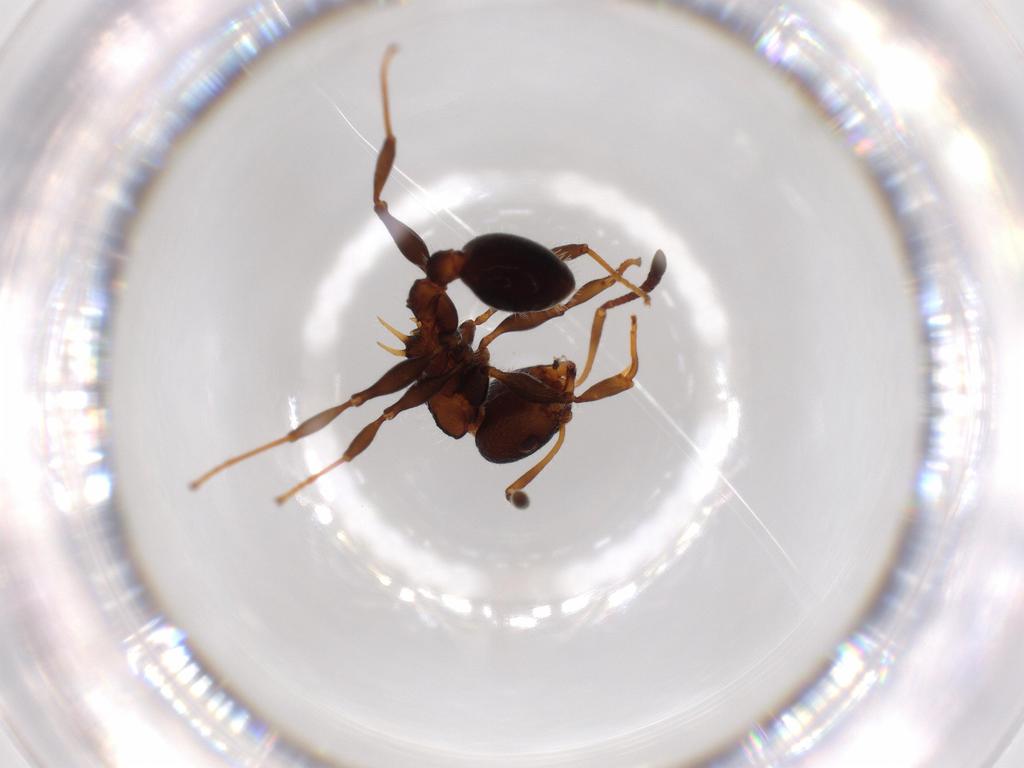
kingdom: Animalia
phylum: Arthropoda
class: Insecta
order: Hymenoptera
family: Formicidae
